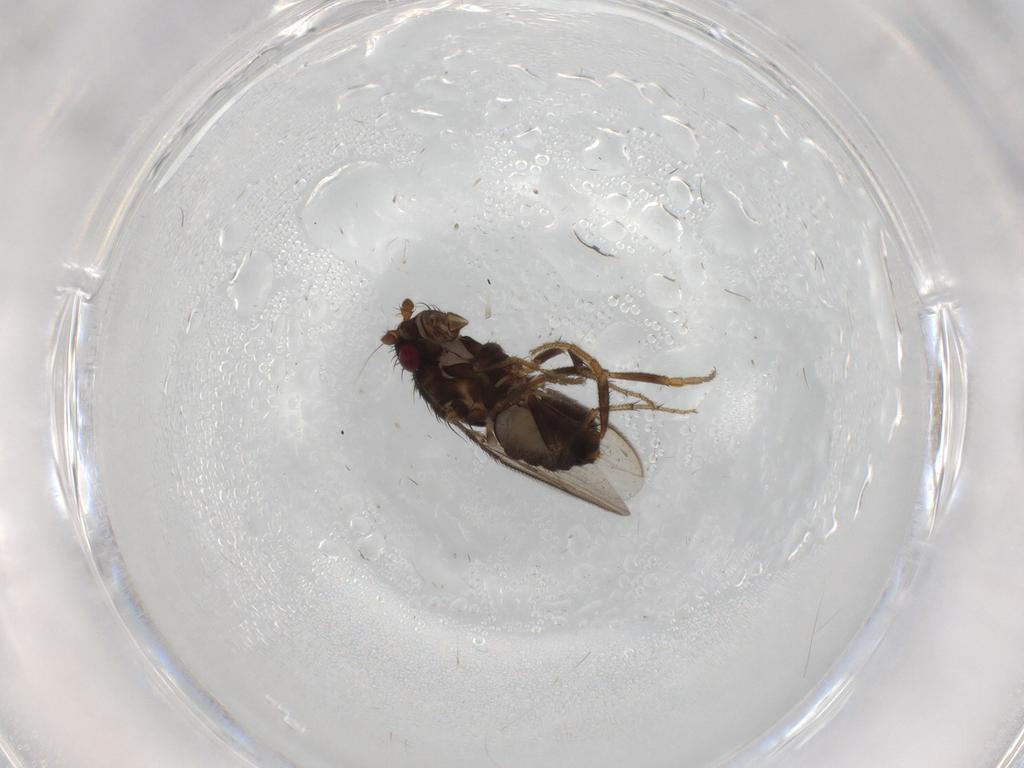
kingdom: Animalia
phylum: Arthropoda
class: Insecta
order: Diptera
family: Sphaeroceridae
